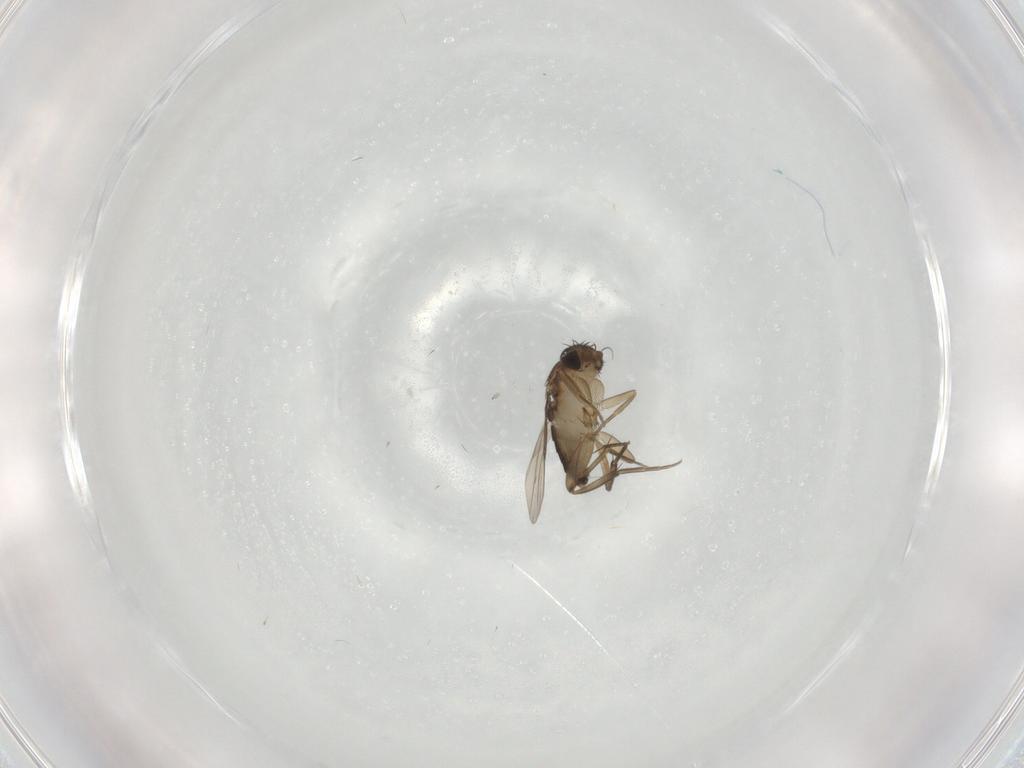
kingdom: Animalia
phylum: Arthropoda
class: Insecta
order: Diptera
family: Phoridae
